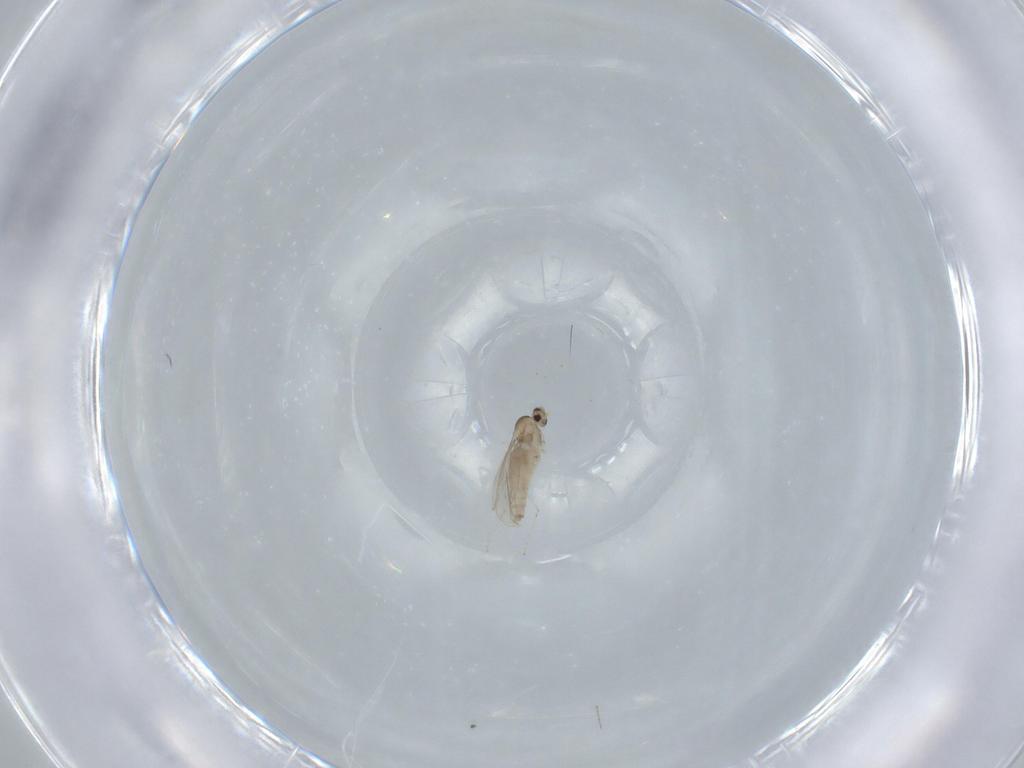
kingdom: Animalia
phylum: Arthropoda
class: Insecta
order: Diptera
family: Cecidomyiidae
